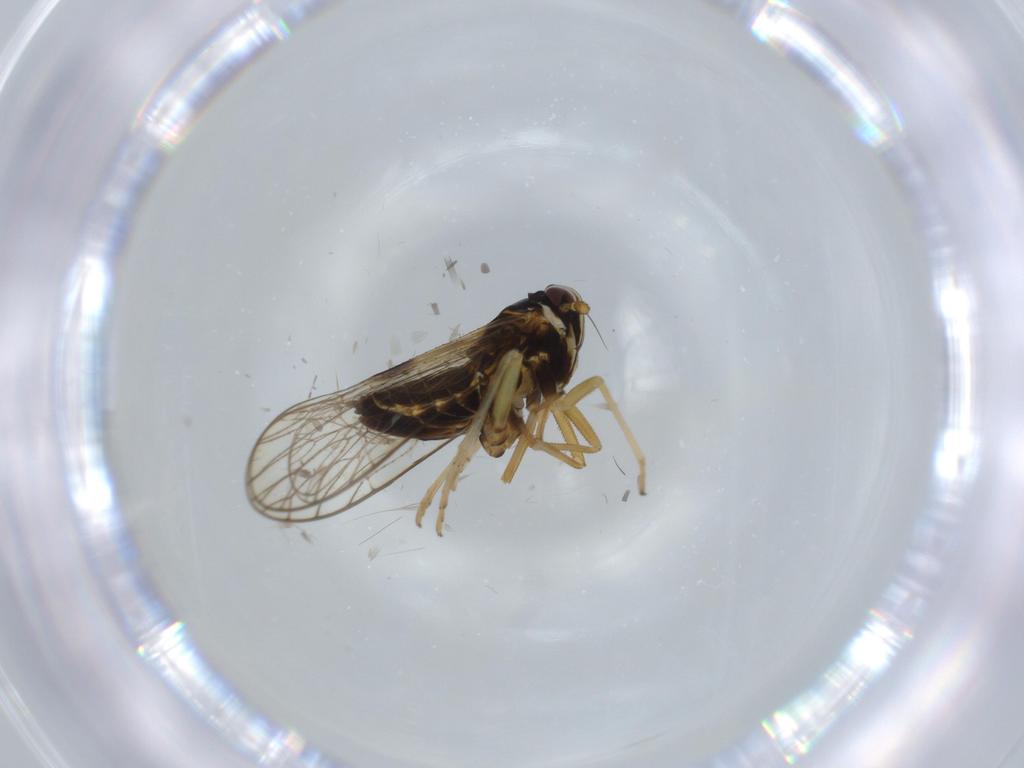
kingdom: Animalia
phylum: Arthropoda
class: Insecta
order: Hemiptera
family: Membracidae
